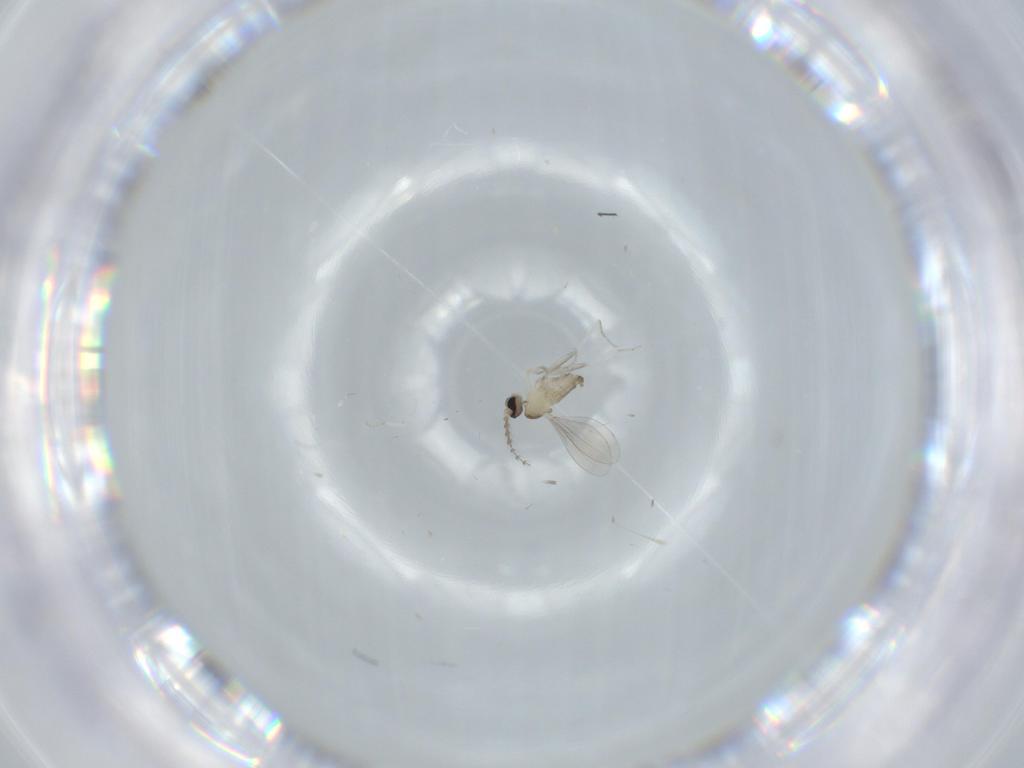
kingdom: Animalia
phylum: Arthropoda
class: Insecta
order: Diptera
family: Cecidomyiidae
